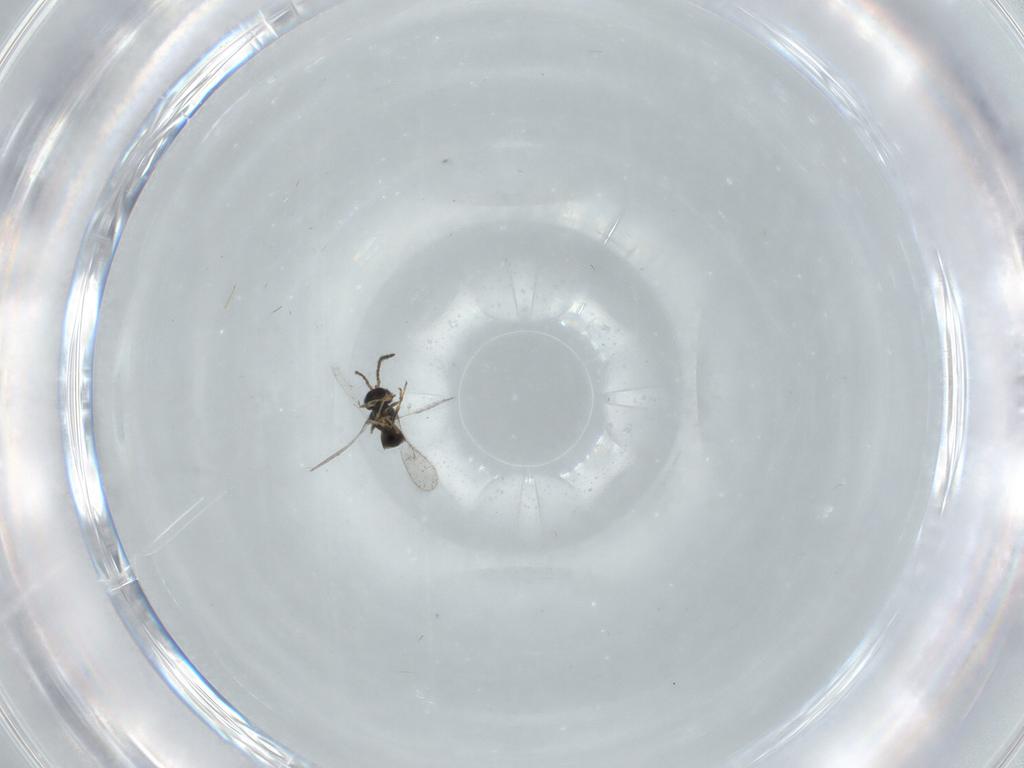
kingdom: Animalia
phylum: Arthropoda
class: Insecta
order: Hymenoptera
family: Scelionidae
